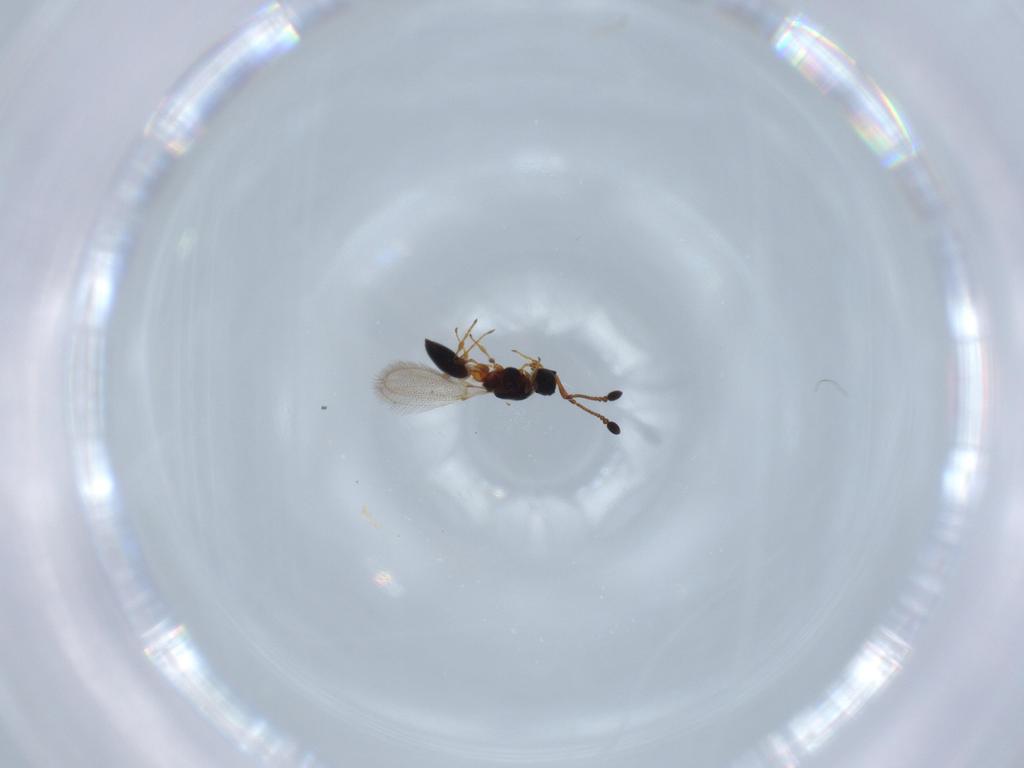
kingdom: Animalia
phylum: Arthropoda
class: Insecta
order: Hymenoptera
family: Diapriidae
